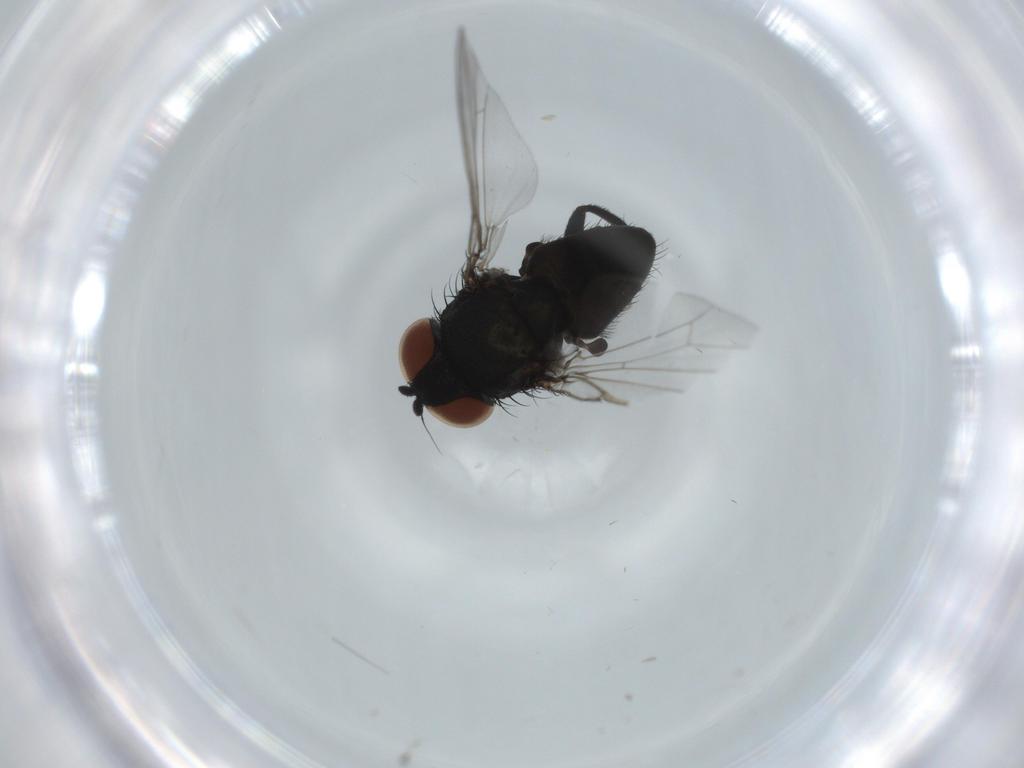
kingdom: Animalia
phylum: Arthropoda
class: Insecta
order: Diptera
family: Milichiidae
